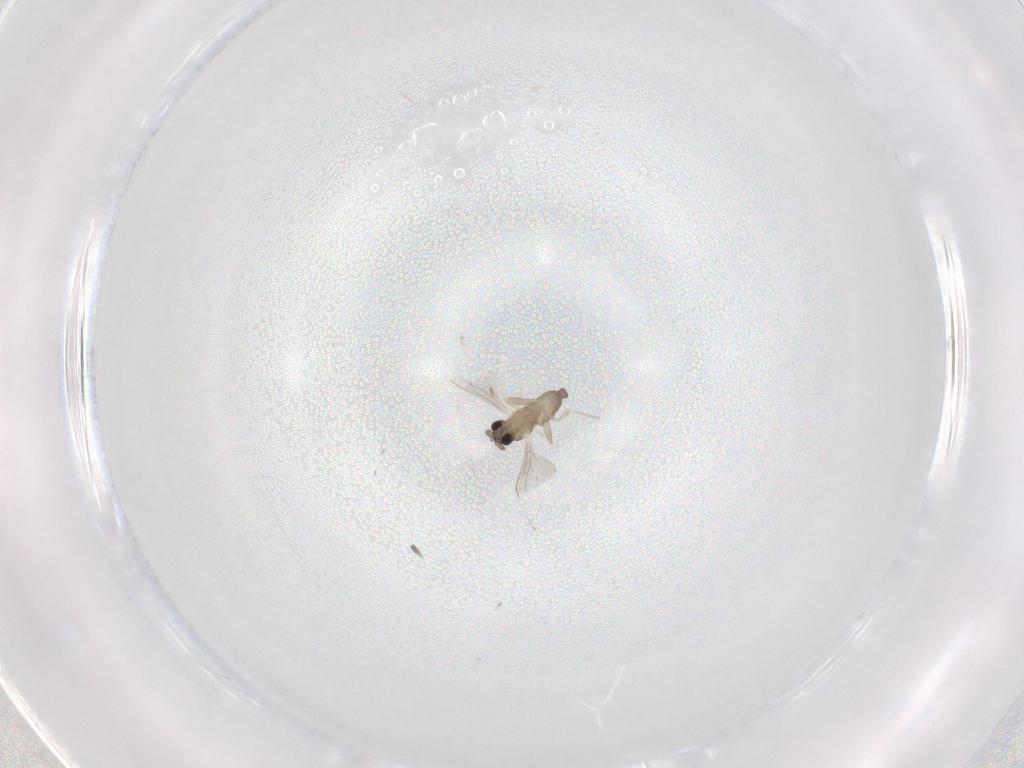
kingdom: Animalia
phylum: Arthropoda
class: Insecta
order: Diptera
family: Cecidomyiidae
